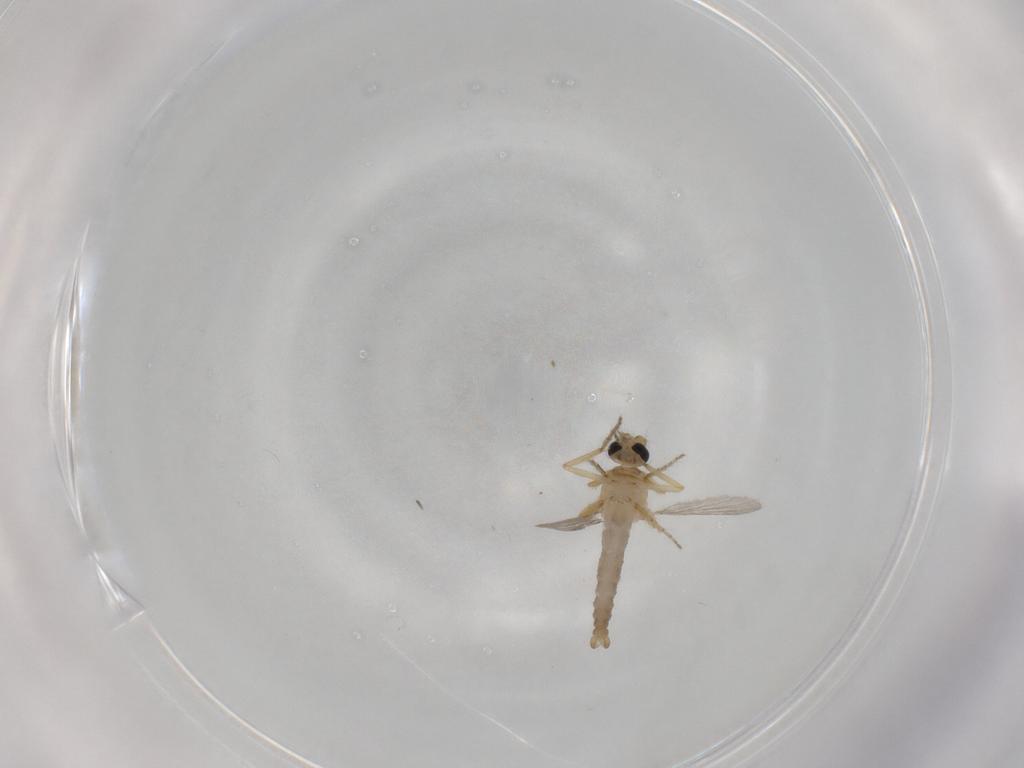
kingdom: Animalia
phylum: Arthropoda
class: Insecta
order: Diptera
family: Ceratopogonidae
